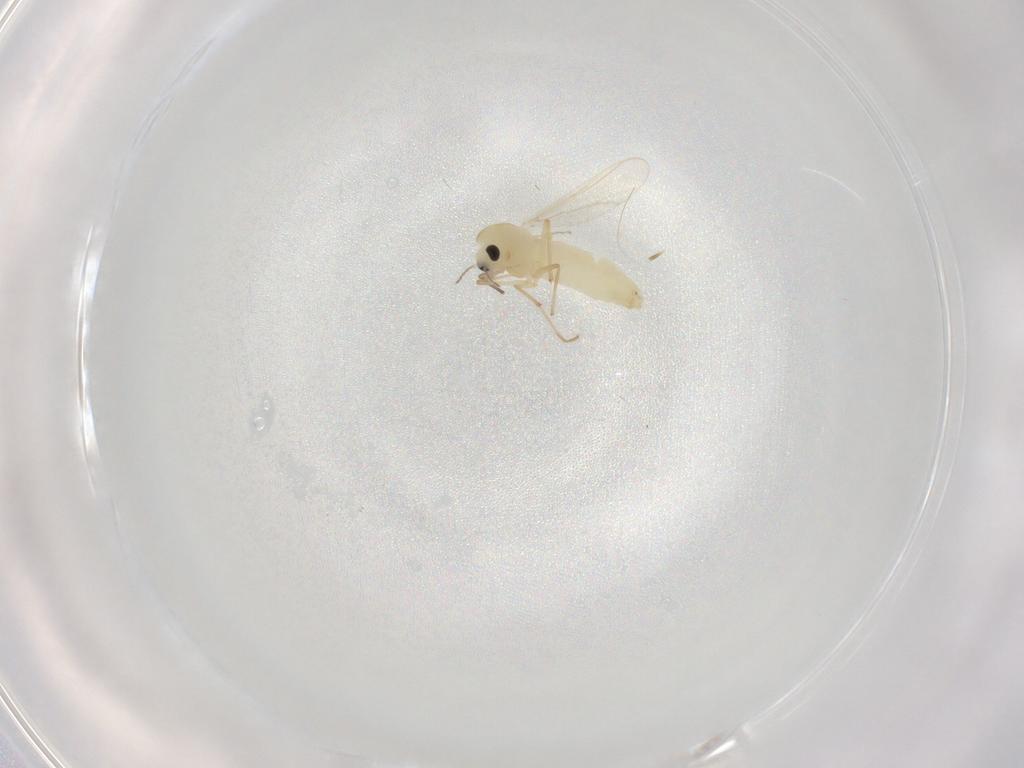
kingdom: Animalia
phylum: Arthropoda
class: Insecta
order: Diptera
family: Chironomidae
